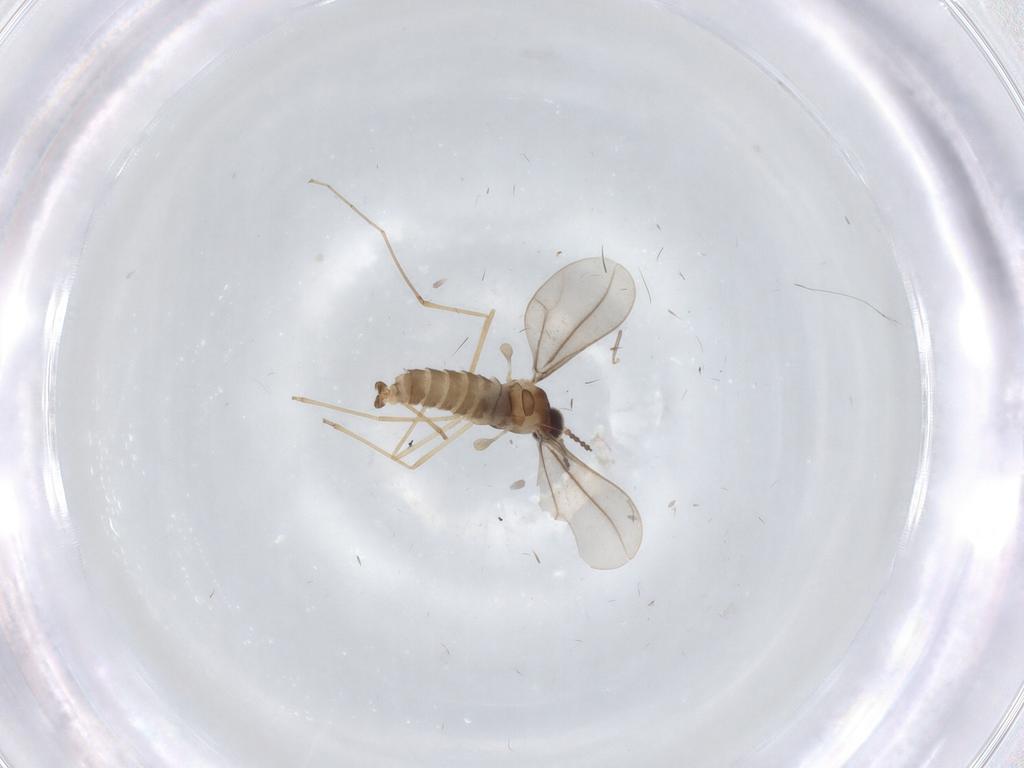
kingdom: Animalia
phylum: Arthropoda
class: Insecta
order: Diptera
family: Cecidomyiidae
